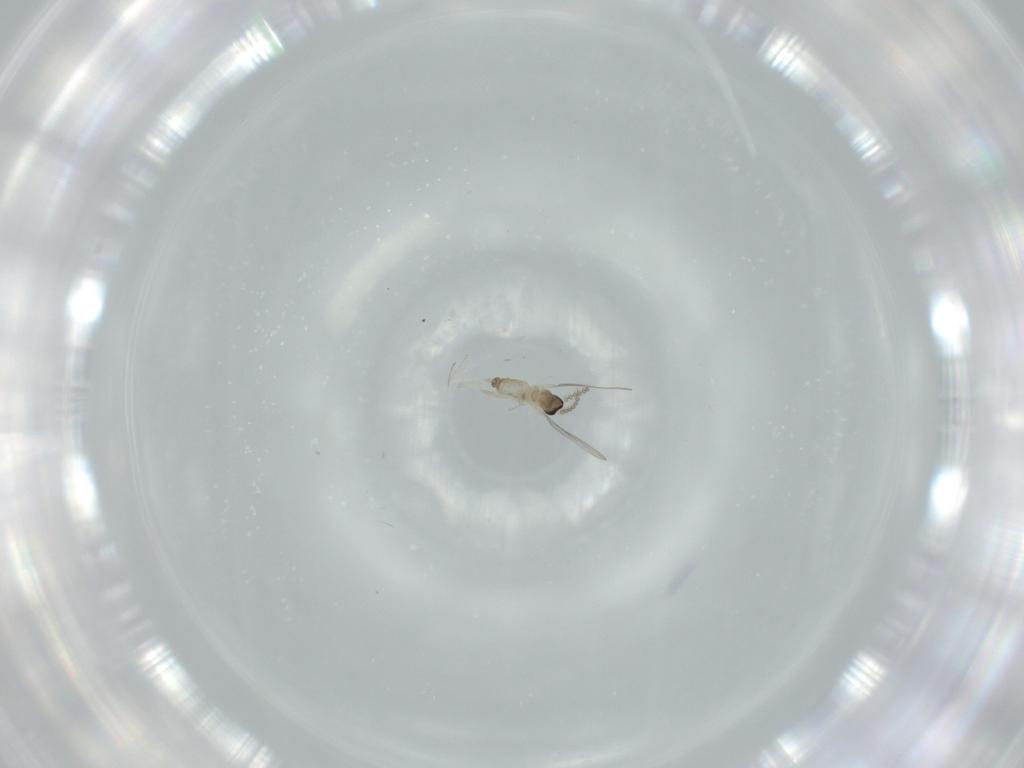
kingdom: Animalia
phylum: Arthropoda
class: Insecta
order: Diptera
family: Cecidomyiidae
